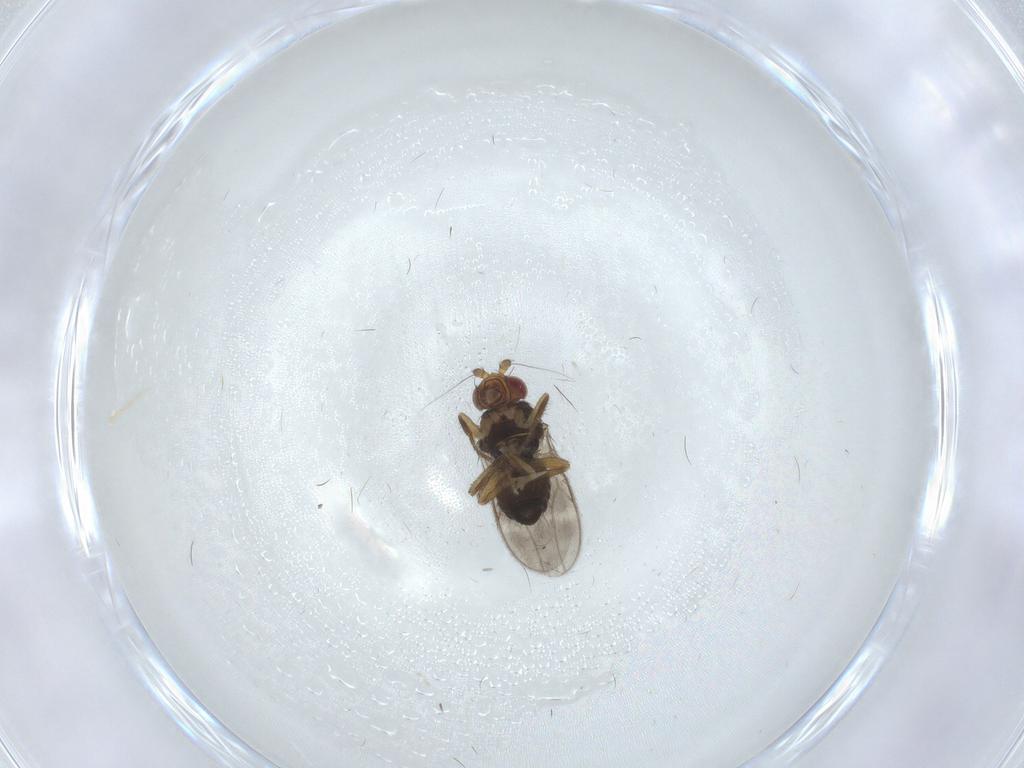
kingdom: Animalia
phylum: Arthropoda
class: Insecta
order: Diptera
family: Sphaeroceridae
